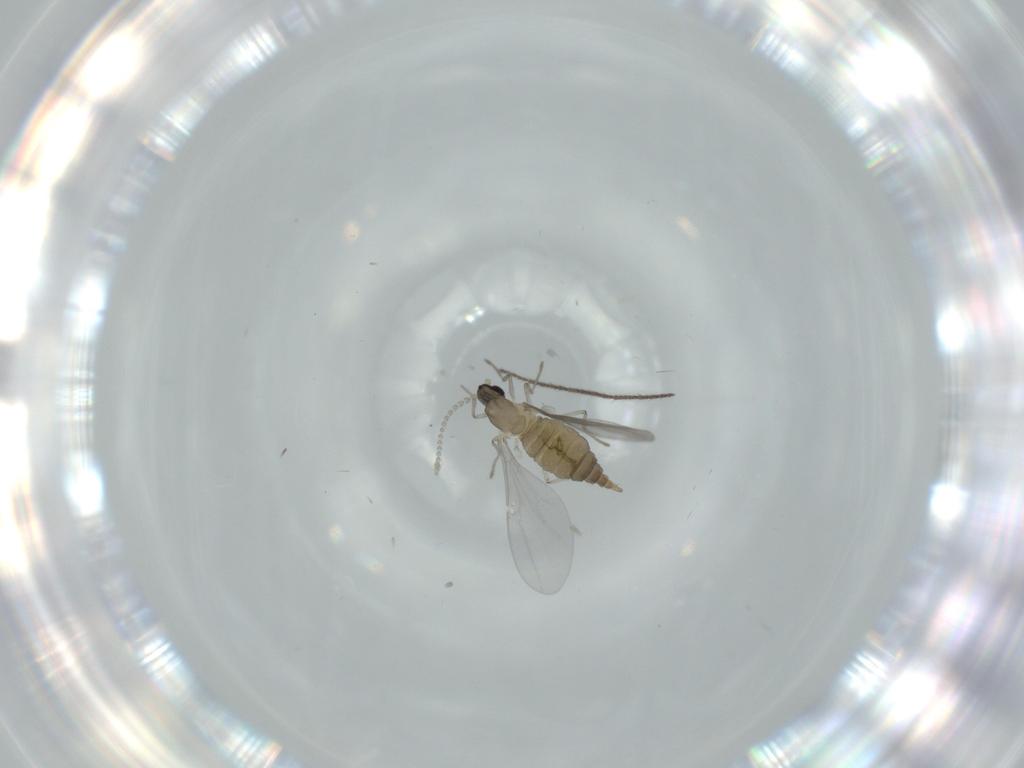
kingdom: Animalia
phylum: Arthropoda
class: Insecta
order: Diptera
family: Cecidomyiidae
